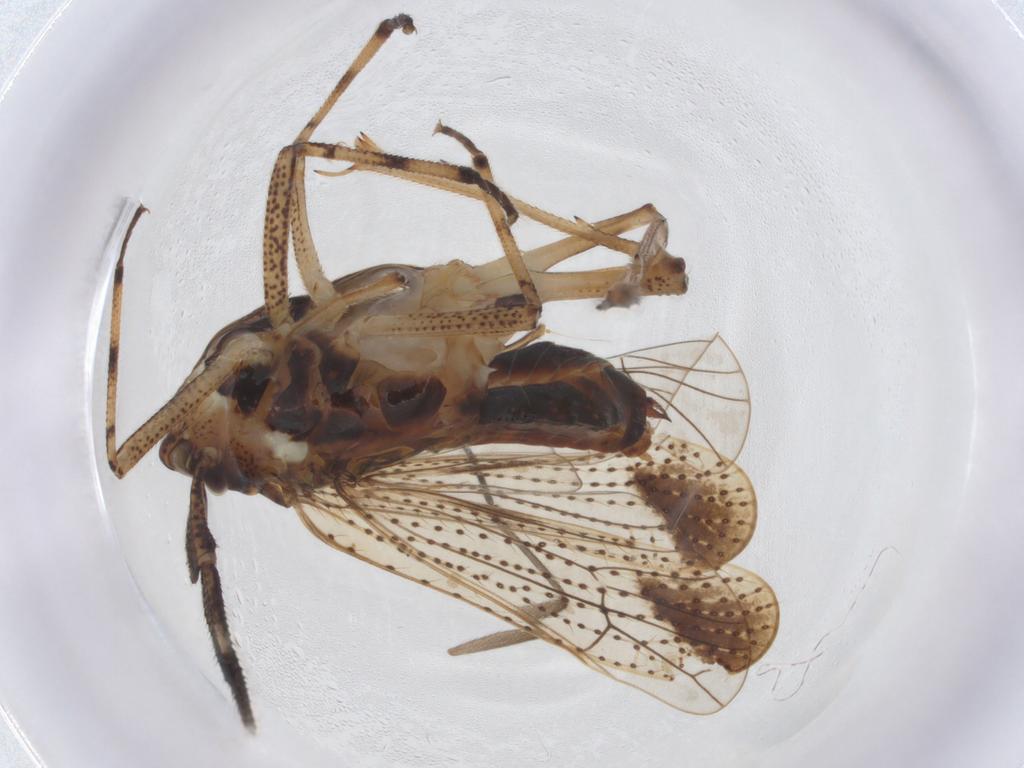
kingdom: Animalia
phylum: Arthropoda
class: Insecta
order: Hemiptera
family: Delphacidae
